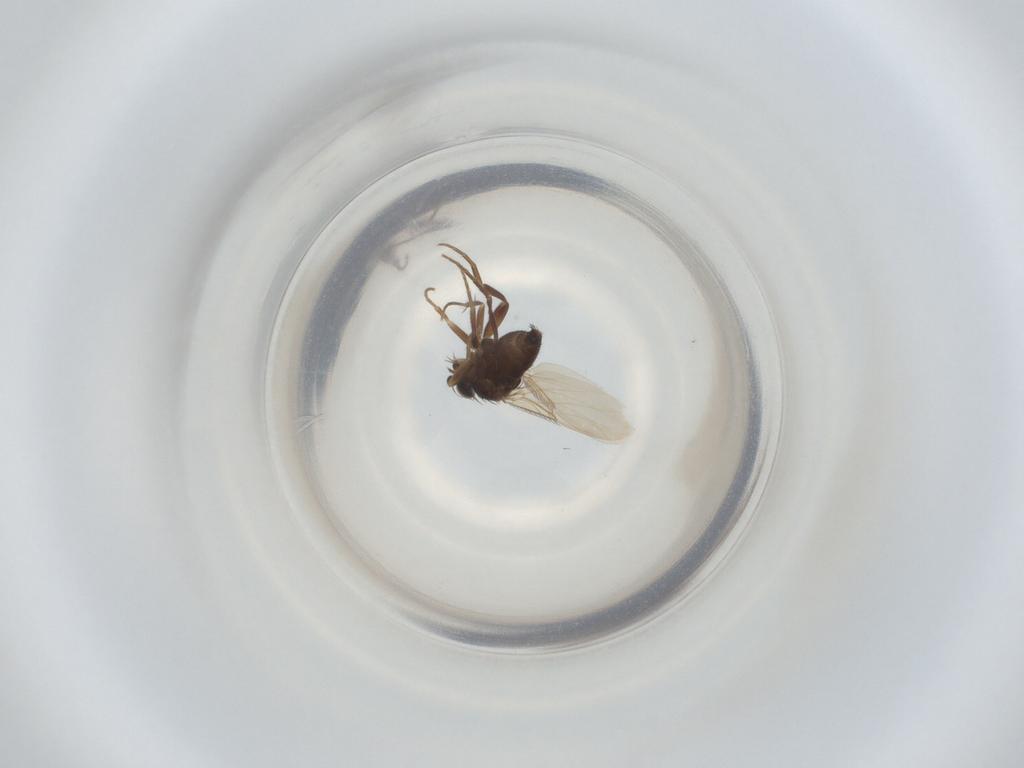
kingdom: Animalia
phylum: Arthropoda
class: Insecta
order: Diptera
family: Phoridae
